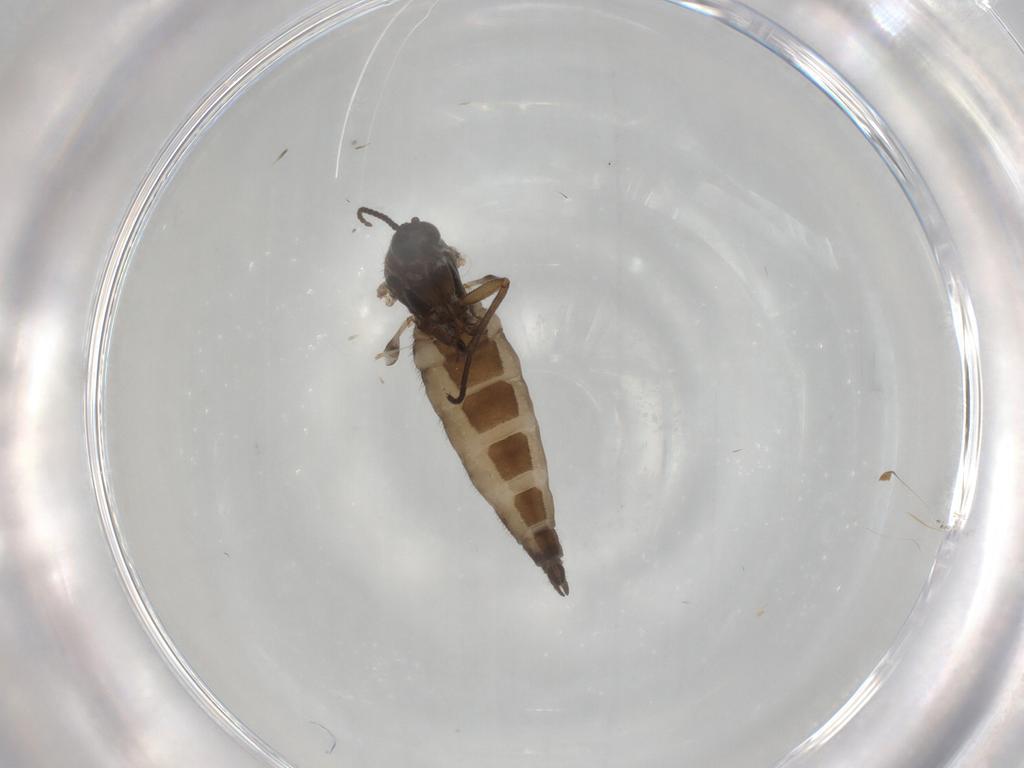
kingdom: Animalia
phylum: Arthropoda
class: Insecta
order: Diptera
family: Sciaridae
